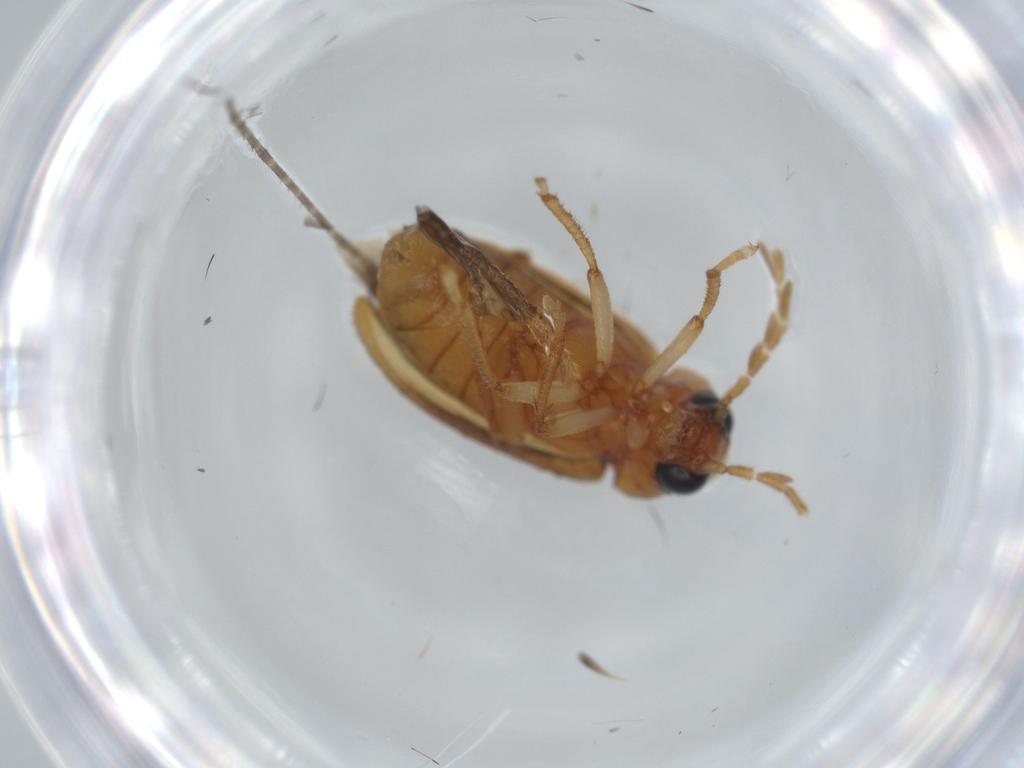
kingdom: Animalia
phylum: Arthropoda
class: Insecta
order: Coleoptera
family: Ptilodactylidae
